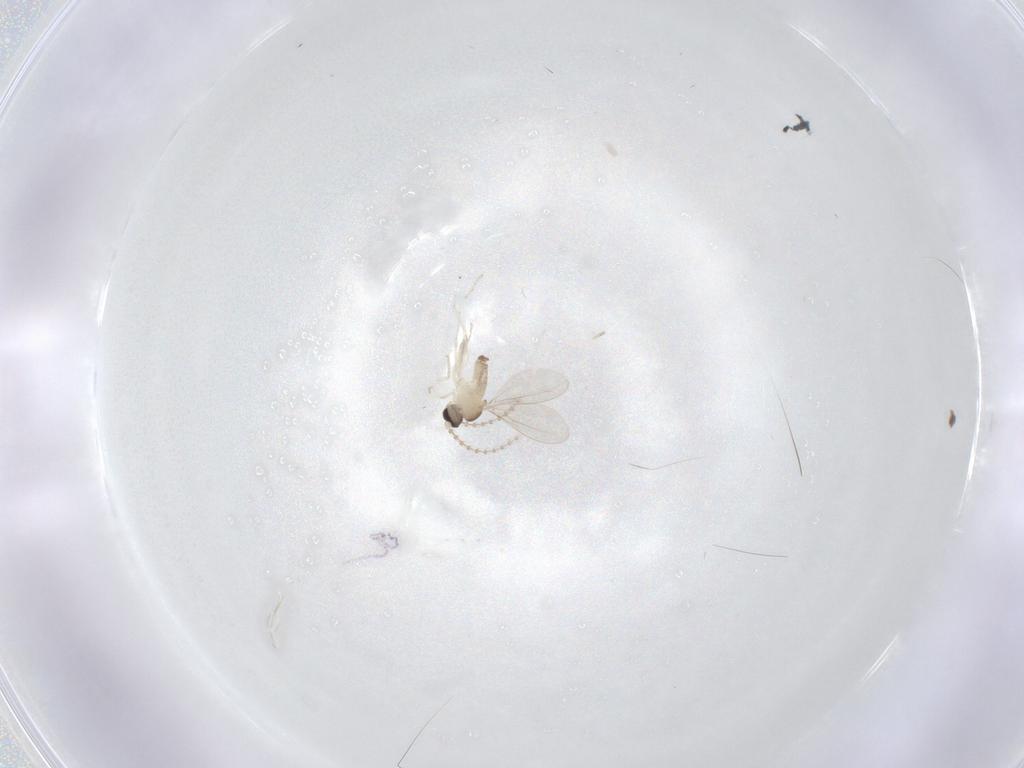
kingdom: Animalia
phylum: Arthropoda
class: Insecta
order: Diptera
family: Cecidomyiidae
